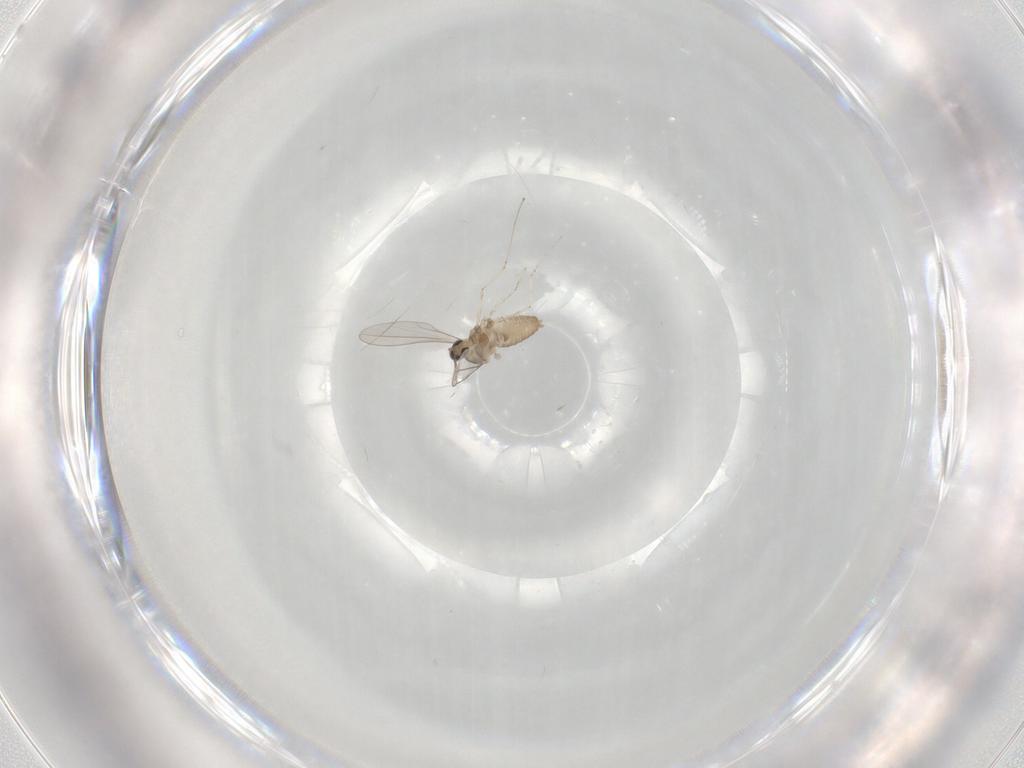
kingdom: Animalia
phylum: Arthropoda
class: Insecta
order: Diptera
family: Cecidomyiidae
